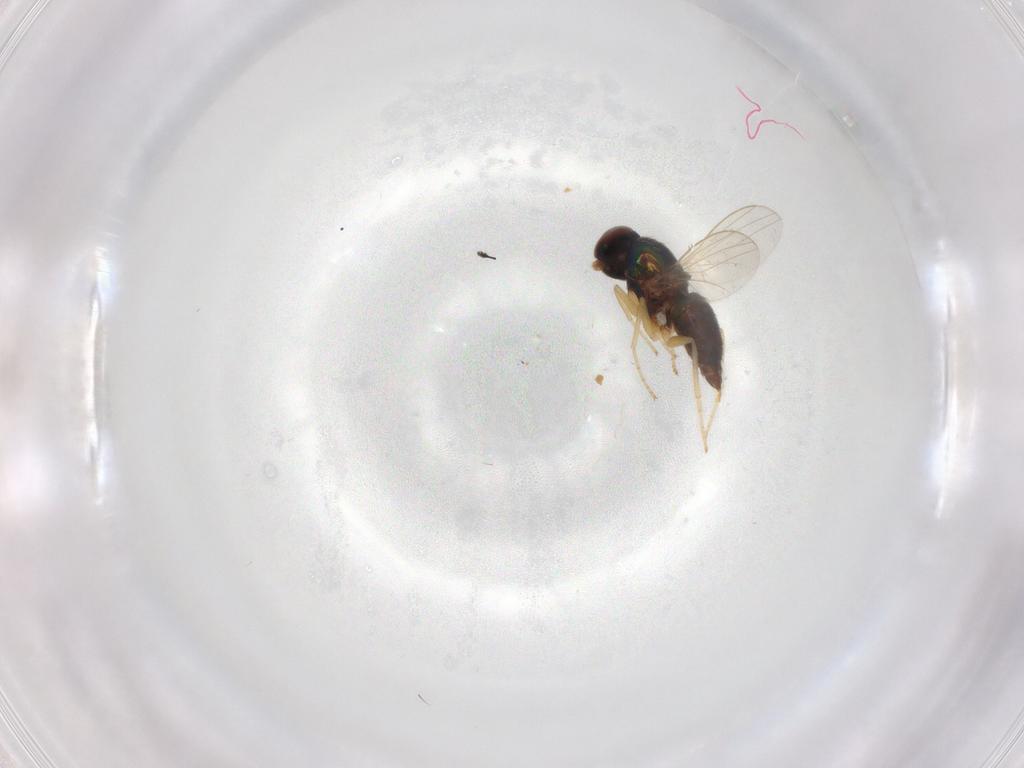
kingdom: Animalia
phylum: Arthropoda
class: Insecta
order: Diptera
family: Dolichopodidae
